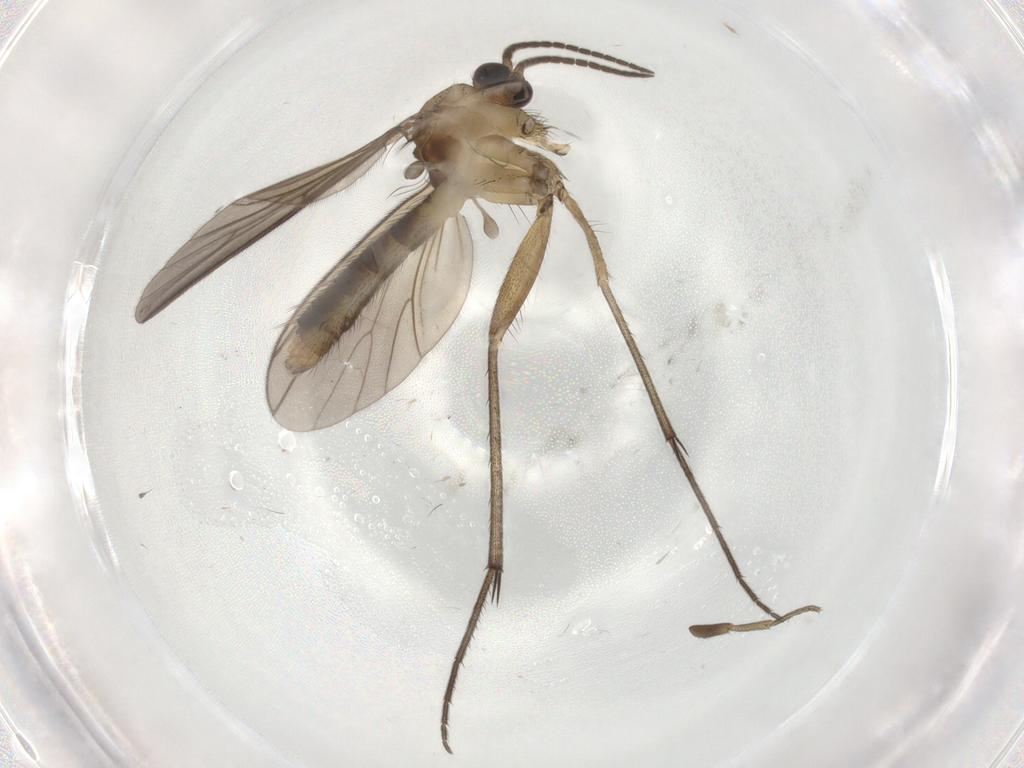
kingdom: Animalia
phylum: Arthropoda
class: Insecta
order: Diptera
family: Mycetophilidae
